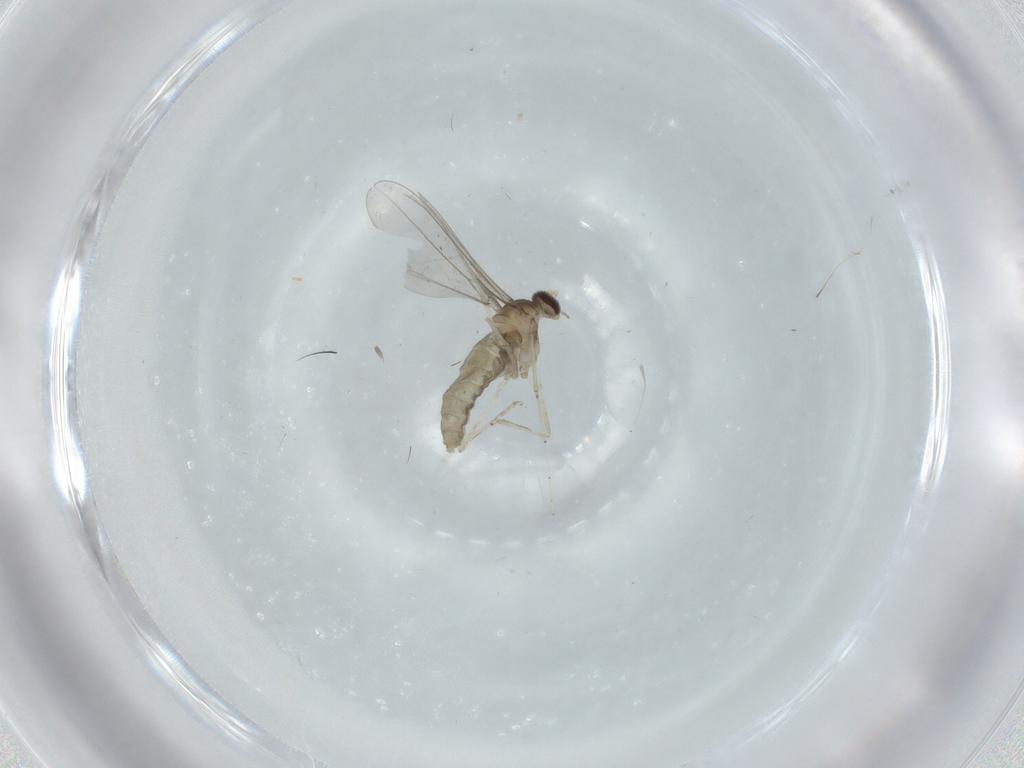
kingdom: Animalia
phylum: Arthropoda
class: Insecta
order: Diptera
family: Cecidomyiidae
